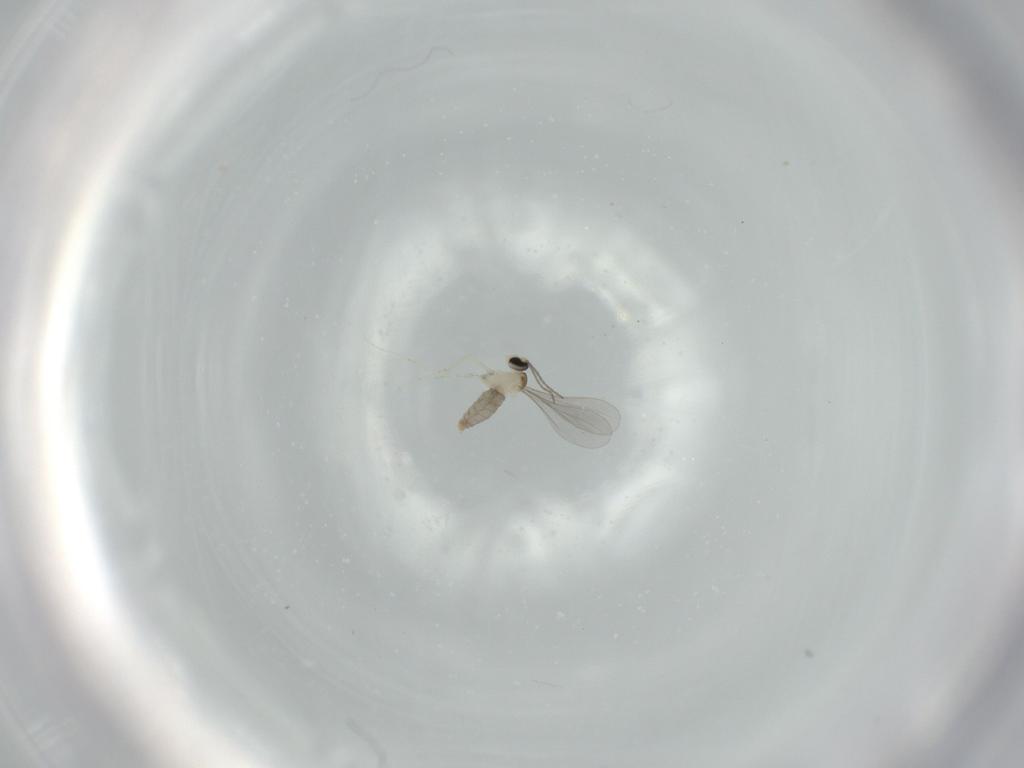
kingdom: Animalia
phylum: Arthropoda
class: Insecta
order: Diptera
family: Sciaridae
